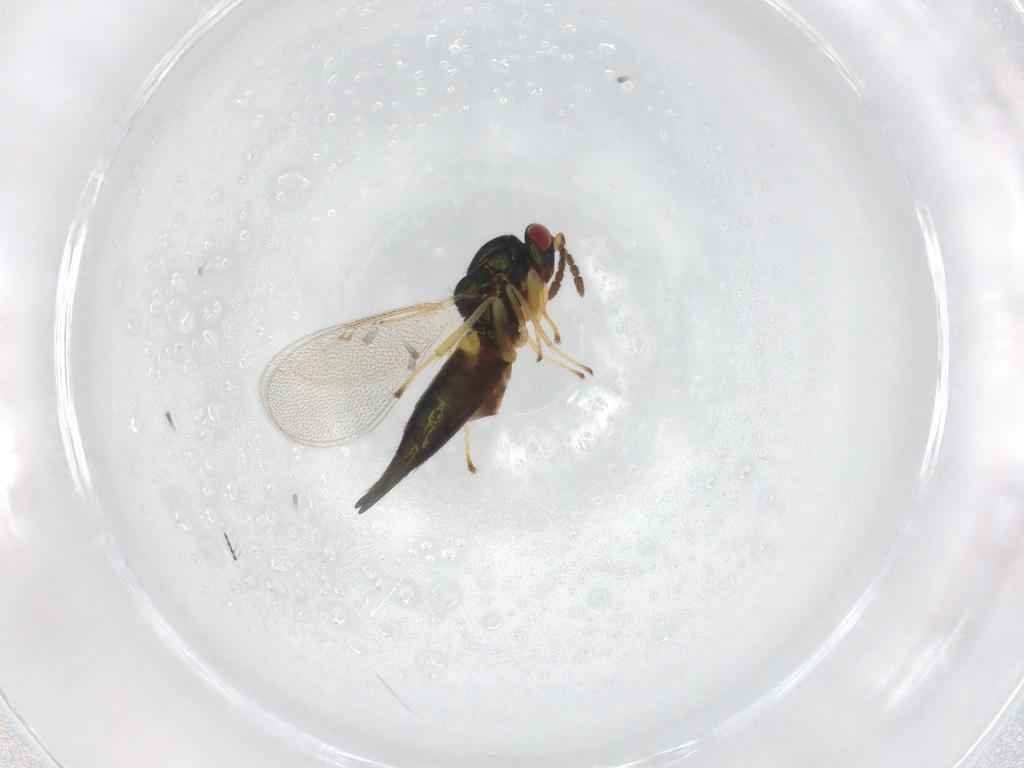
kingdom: Animalia
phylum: Arthropoda
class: Insecta
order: Hymenoptera
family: Eulophidae
